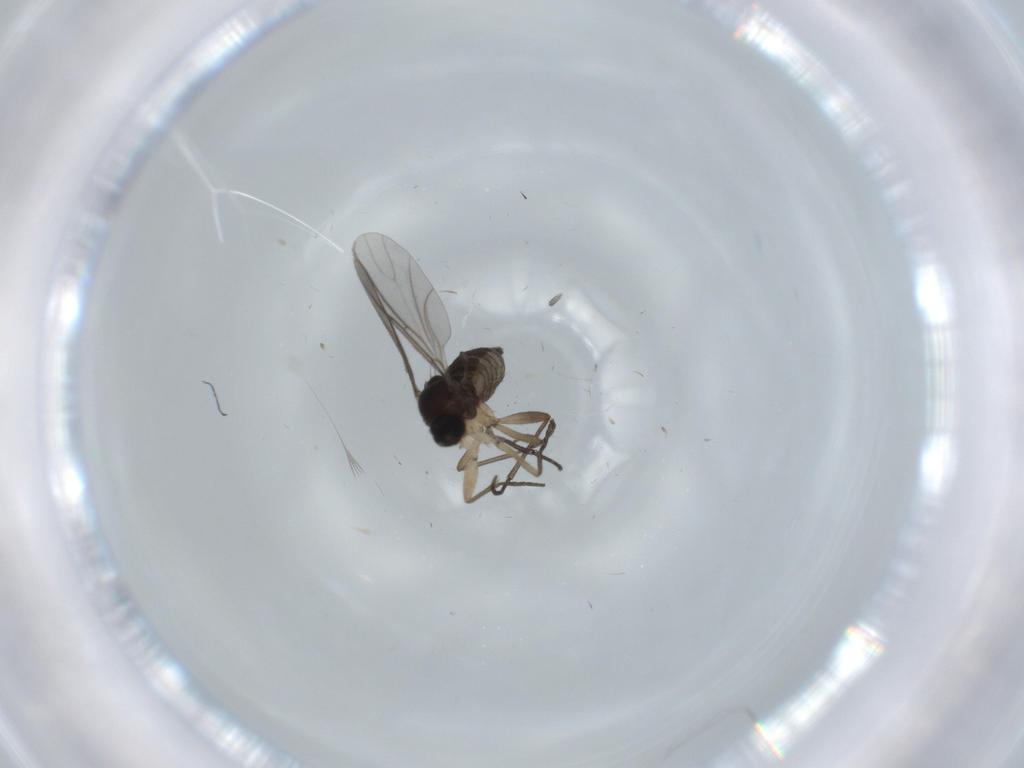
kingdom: Animalia
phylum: Arthropoda
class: Insecta
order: Diptera
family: Sciaridae
